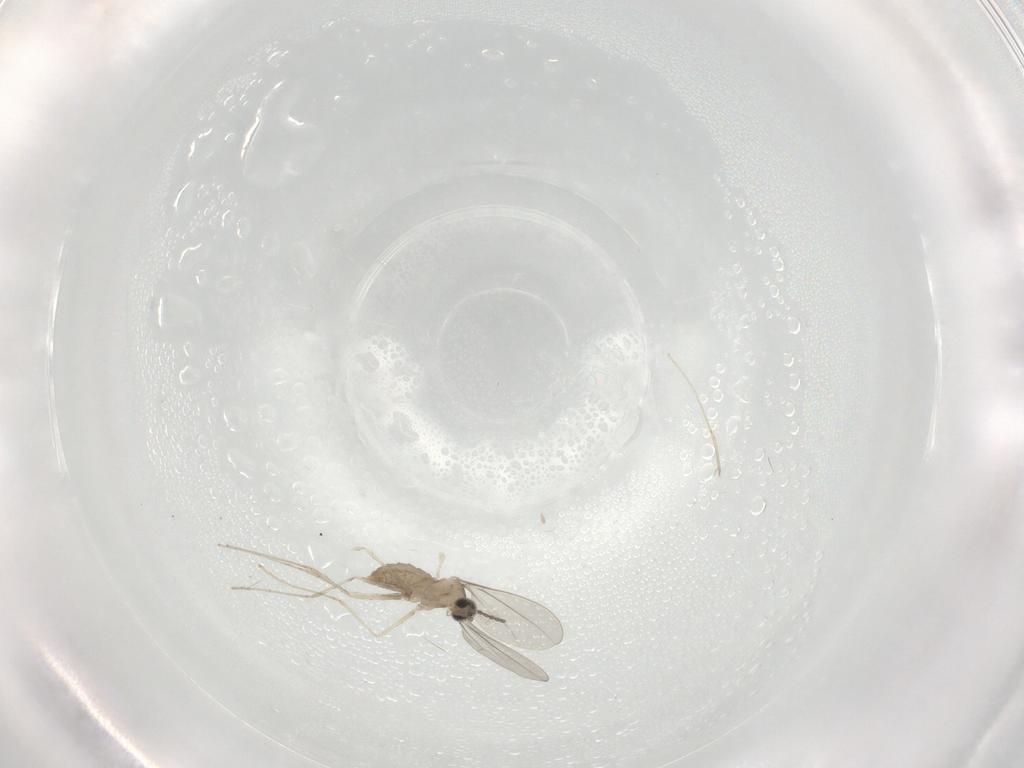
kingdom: Animalia
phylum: Arthropoda
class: Insecta
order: Diptera
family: Cecidomyiidae
